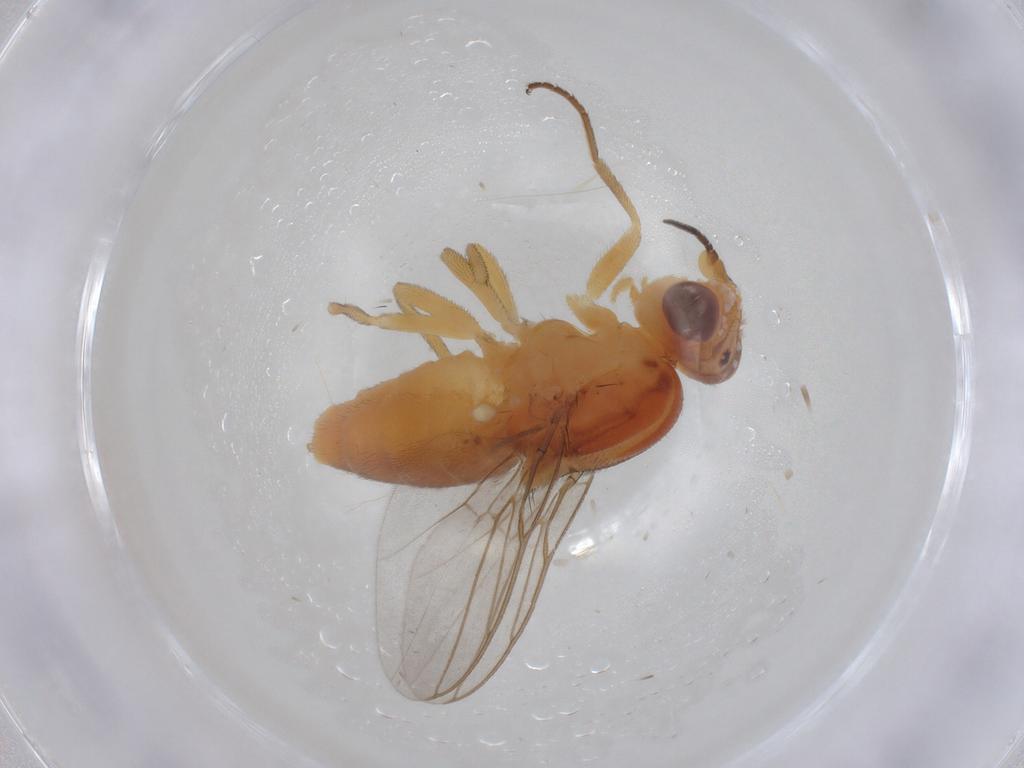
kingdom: Animalia
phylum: Arthropoda
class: Insecta
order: Diptera
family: Chloropidae
